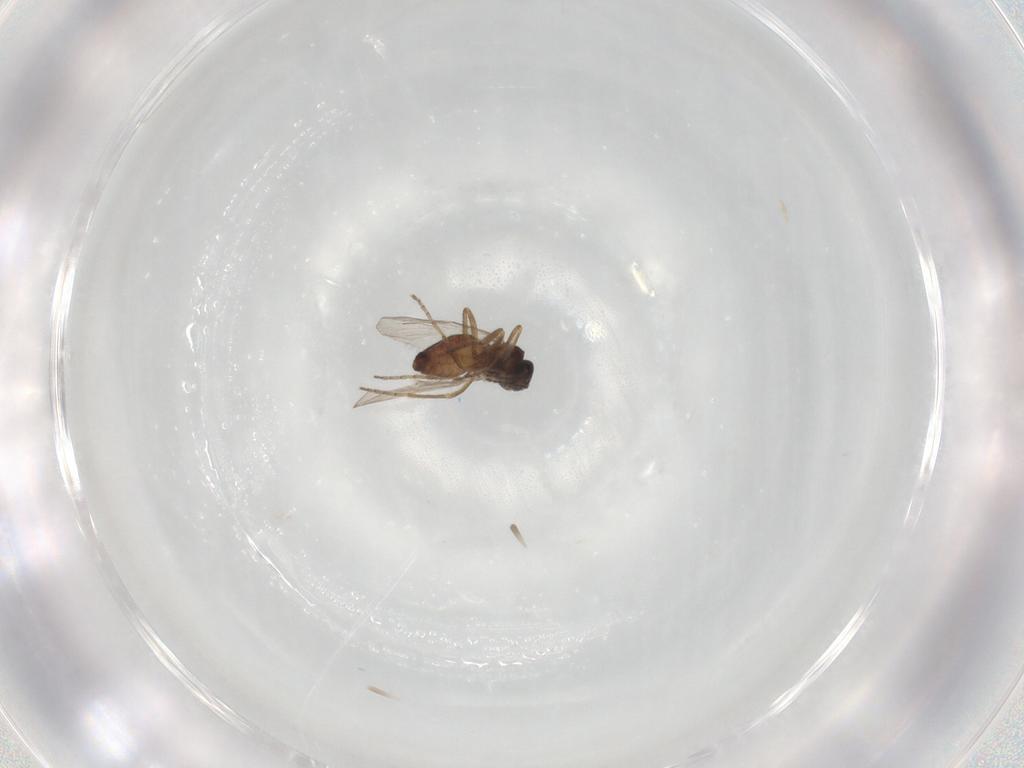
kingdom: Animalia
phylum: Arthropoda
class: Insecta
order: Diptera
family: Ceratopogonidae
